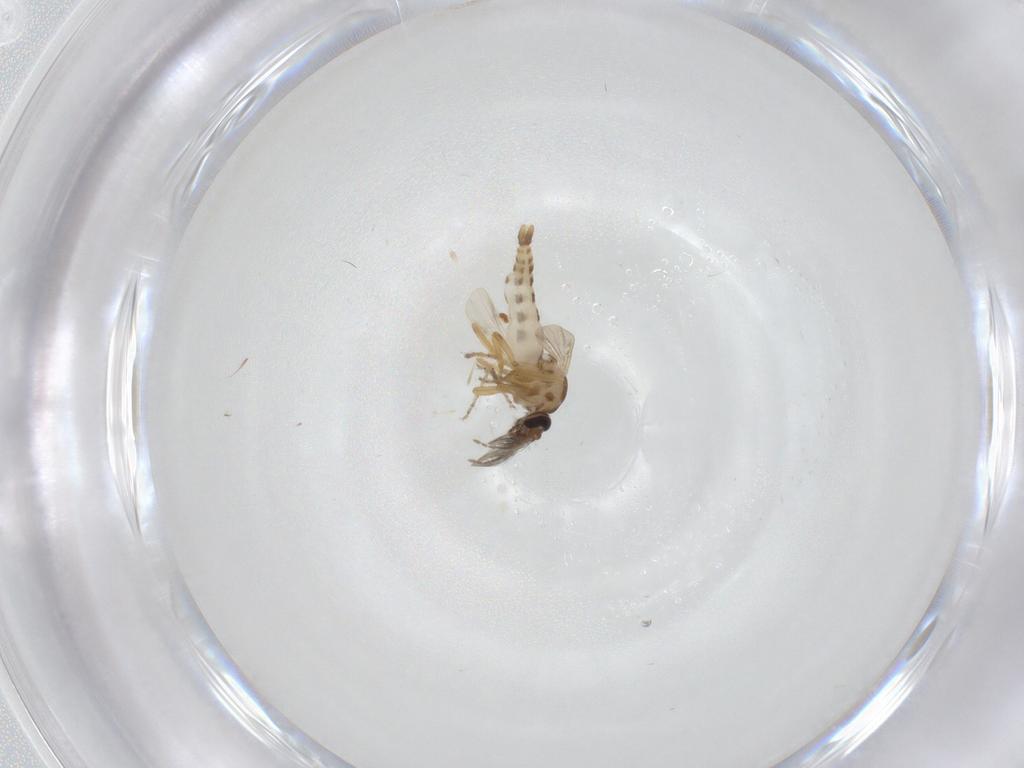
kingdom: Animalia
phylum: Arthropoda
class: Insecta
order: Diptera
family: Ceratopogonidae
